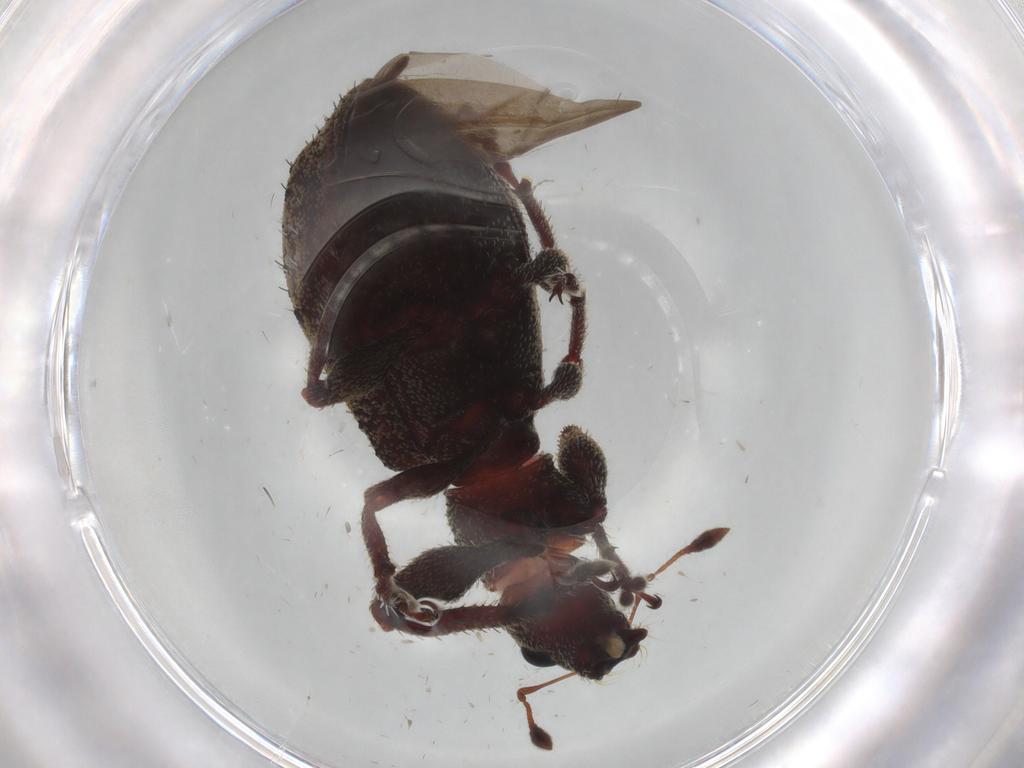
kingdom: Animalia
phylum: Arthropoda
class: Insecta
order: Coleoptera
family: Curculionidae
